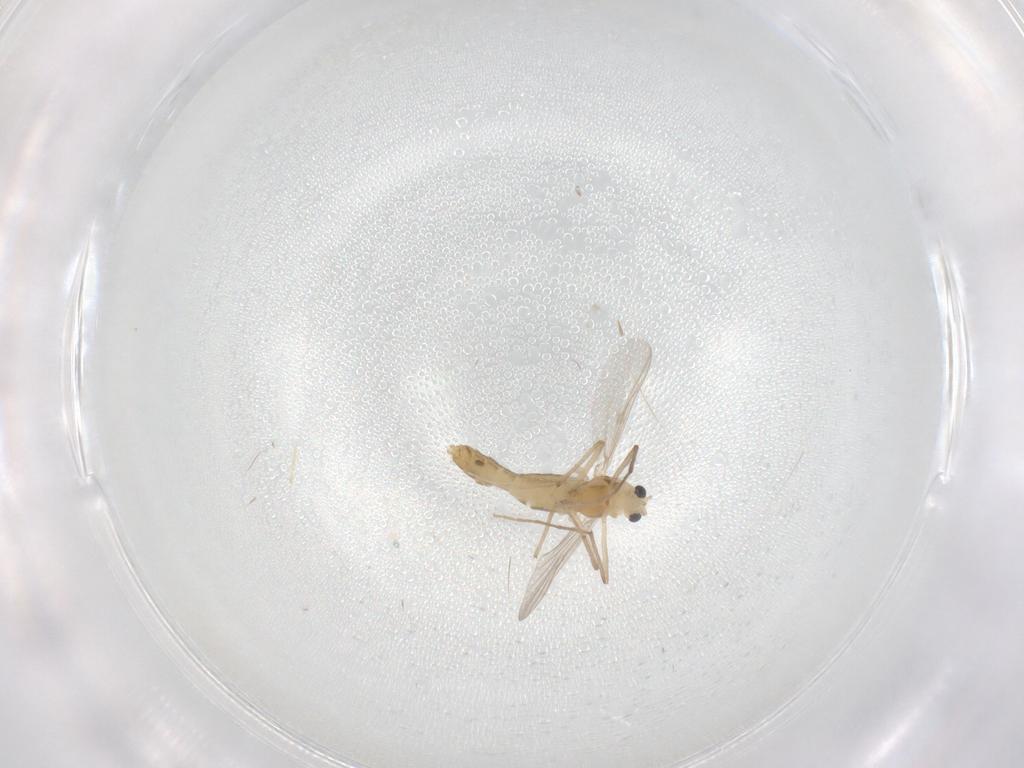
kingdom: Animalia
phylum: Arthropoda
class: Insecta
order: Diptera
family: Chironomidae
